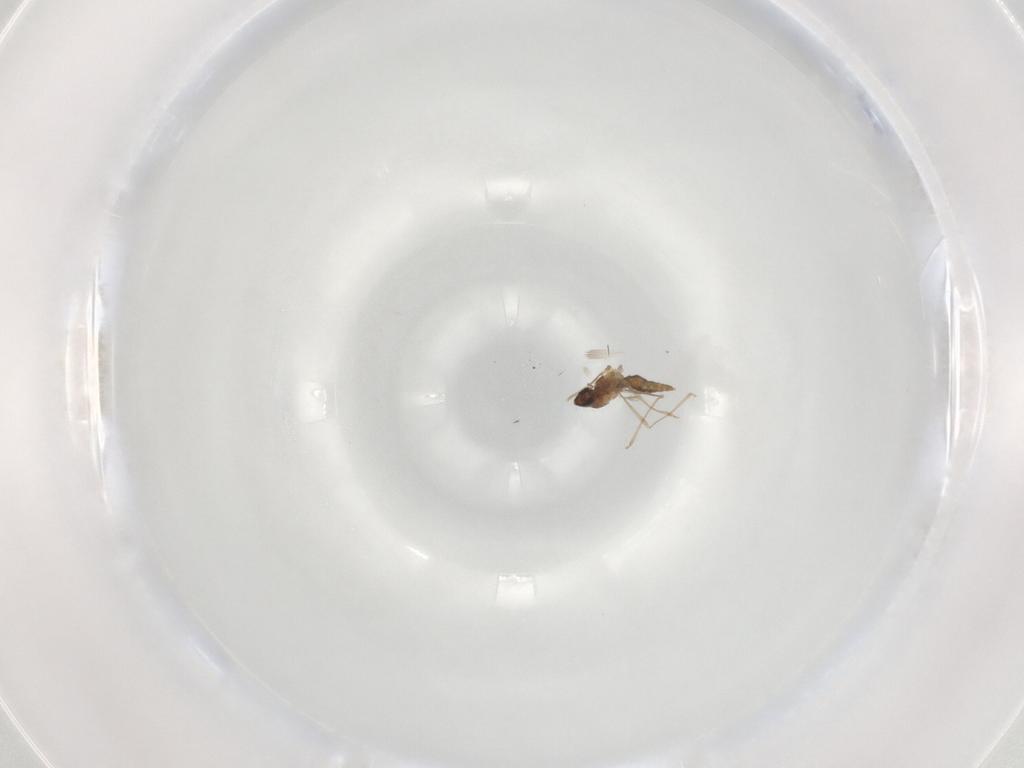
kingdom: Animalia
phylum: Arthropoda
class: Insecta
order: Diptera
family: Cecidomyiidae
